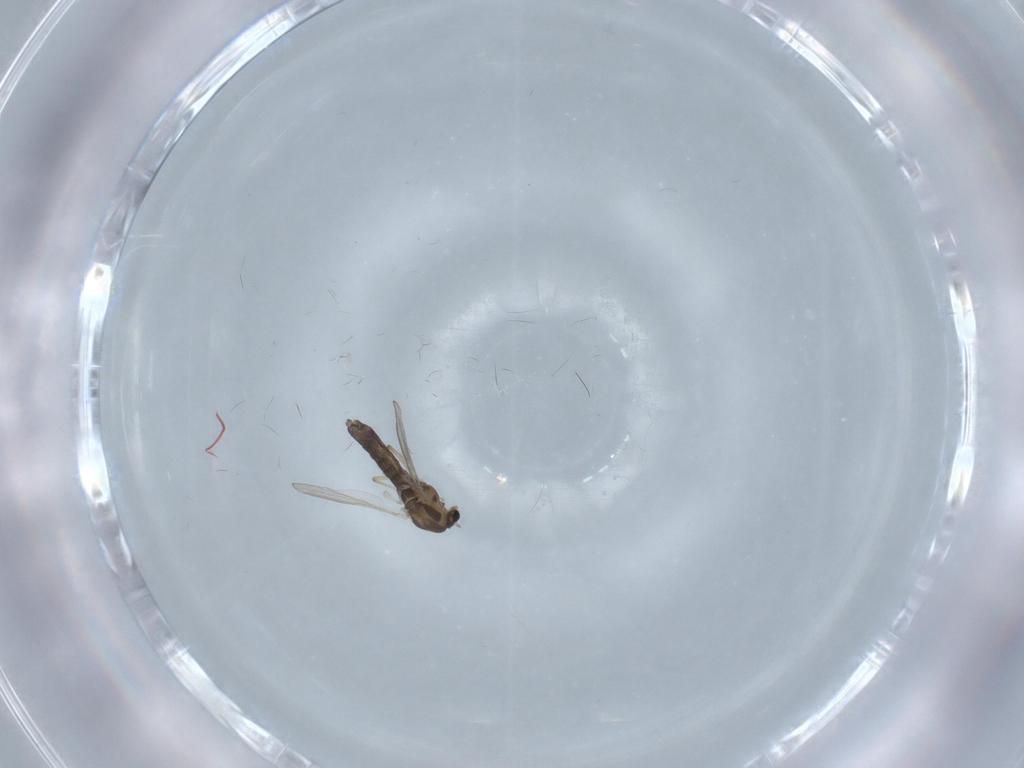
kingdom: Animalia
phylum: Arthropoda
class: Insecta
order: Diptera
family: Chironomidae
